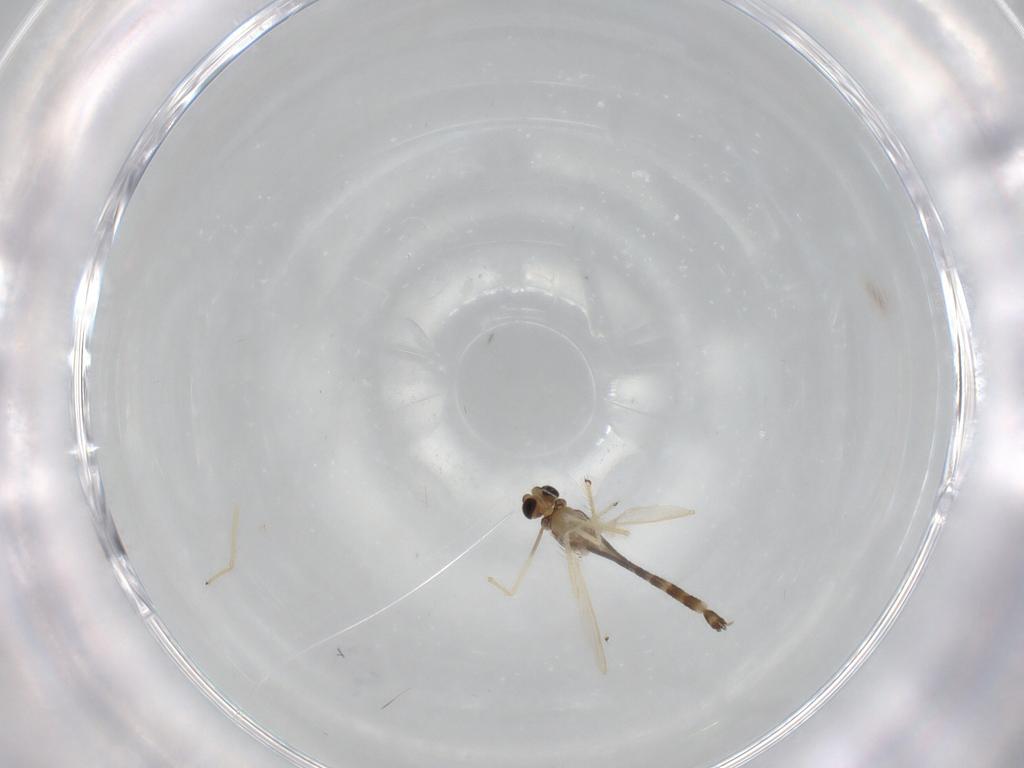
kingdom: Animalia
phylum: Arthropoda
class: Insecta
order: Diptera
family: Chironomidae
